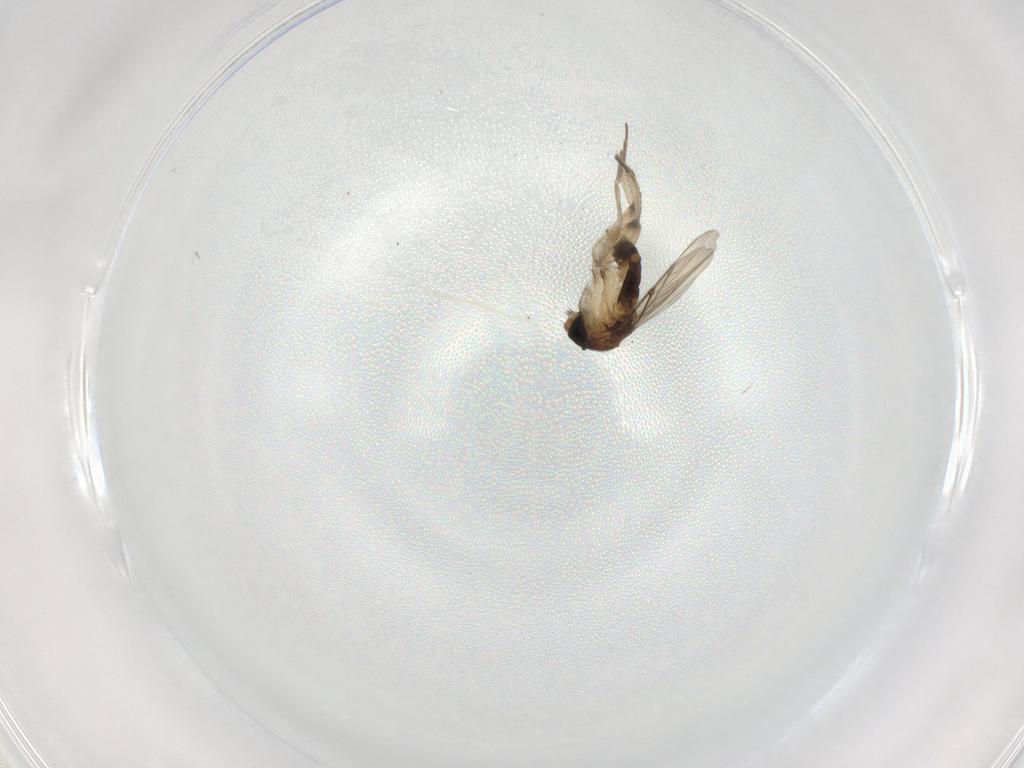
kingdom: Animalia
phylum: Arthropoda
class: Insecta
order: Diptera
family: Phoridae
